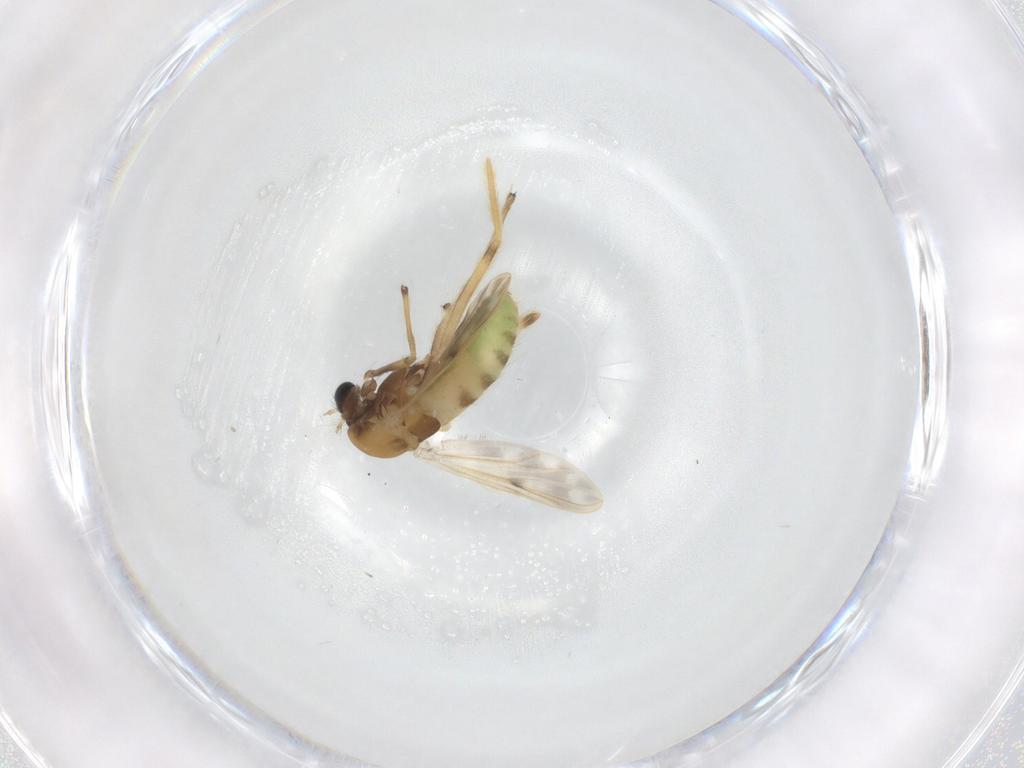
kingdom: Animalia
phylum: Arthropoda
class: Insecta
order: Diptera
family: Chironomidae
